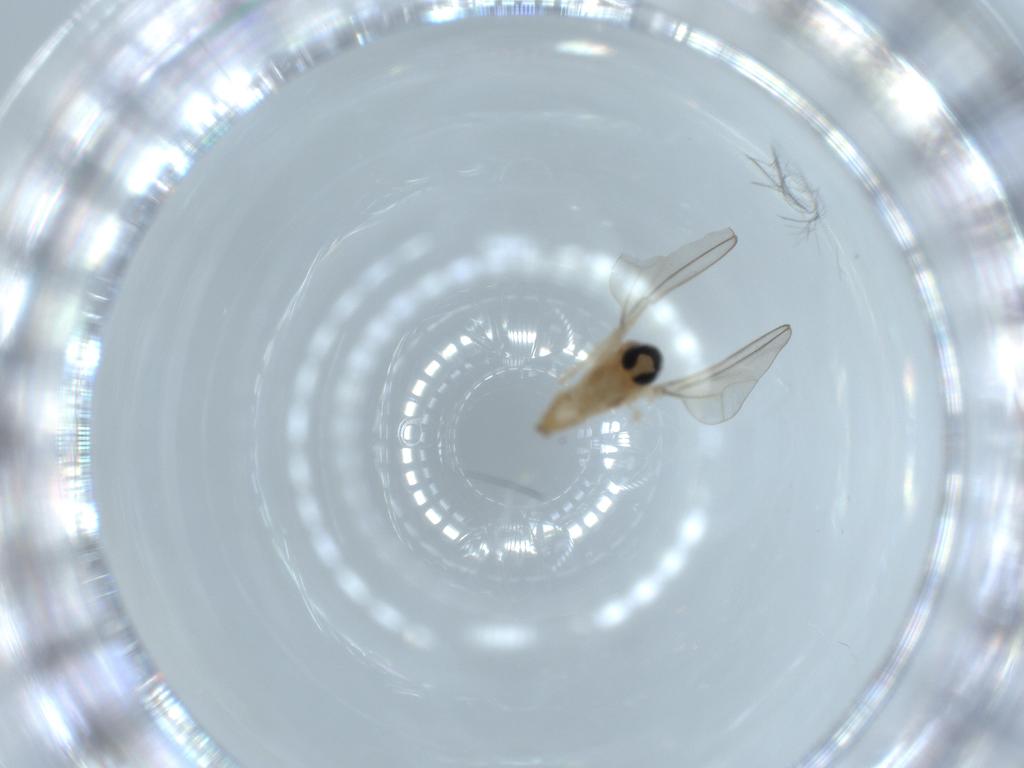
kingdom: Animalia
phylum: Arthropoda
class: Insecta
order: Diptera
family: Cecidomyiidae
